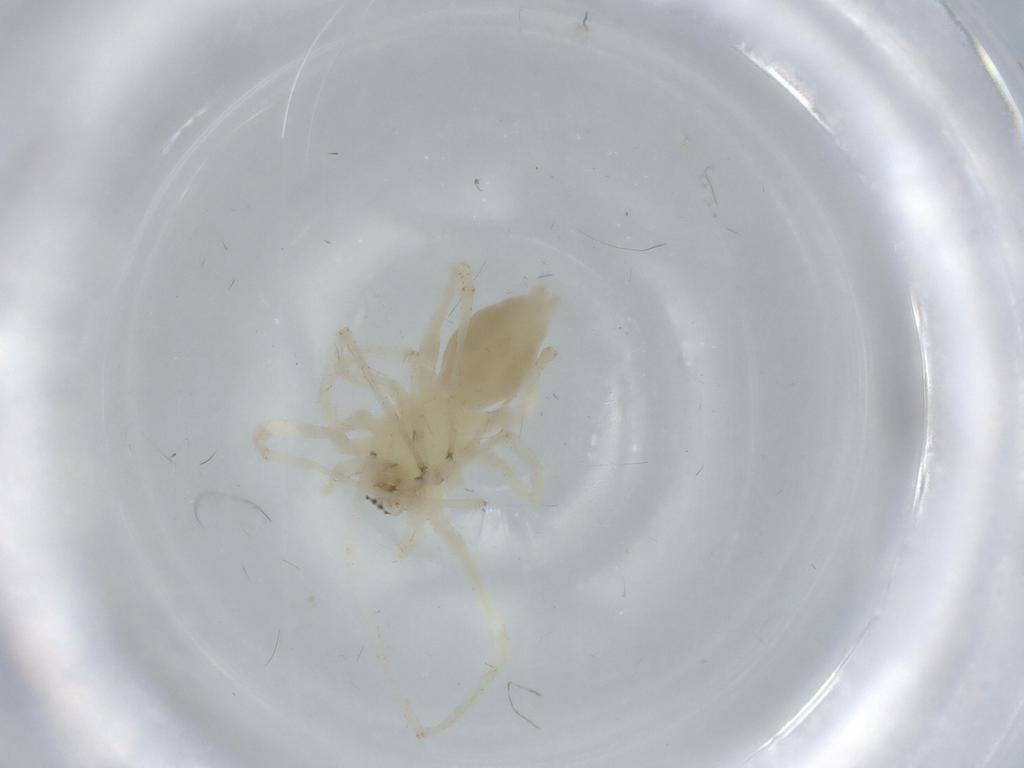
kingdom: Animalia
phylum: Arthropoda
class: Arachnida
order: Araneae
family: Anyphaenidae
